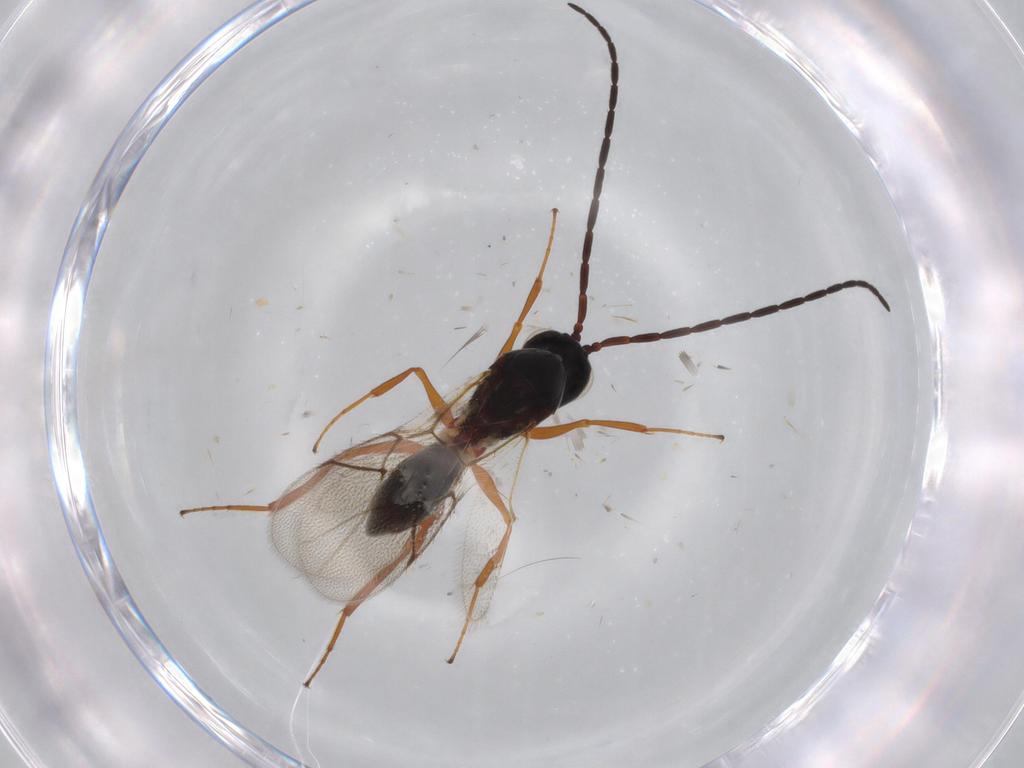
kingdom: Animalia
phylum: Arthropoda
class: Insecta
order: Hymenoptera
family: Figitidae
